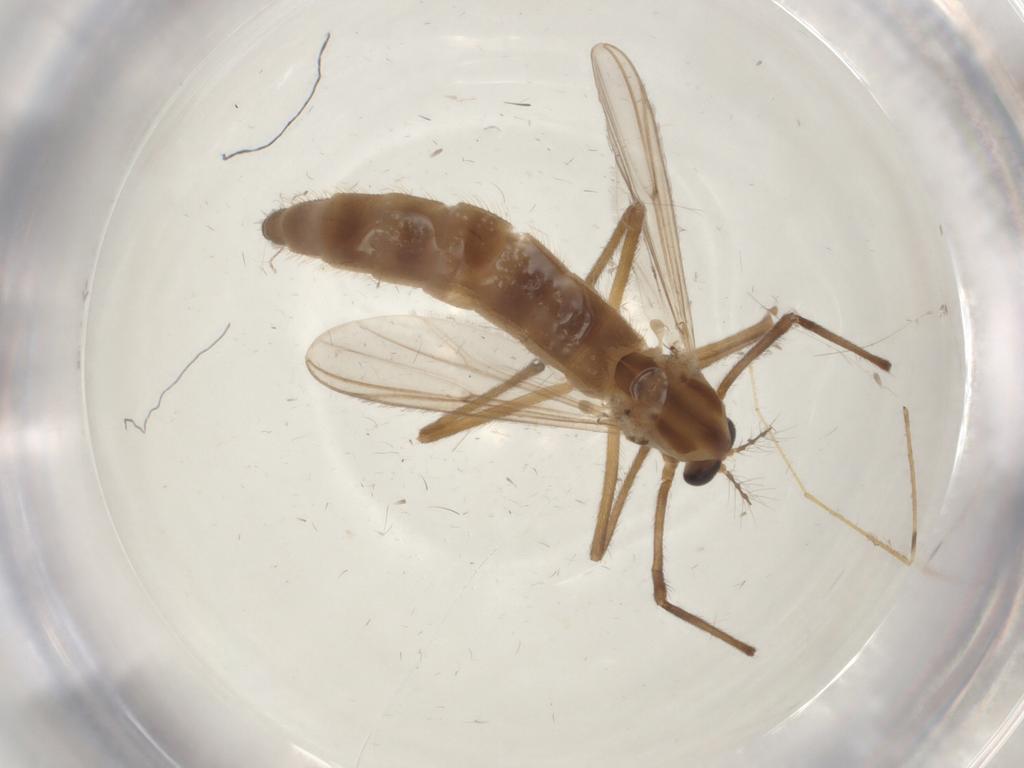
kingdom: Animalia
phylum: Arthropoda
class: Insecta
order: Diptera
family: Chironomidae
